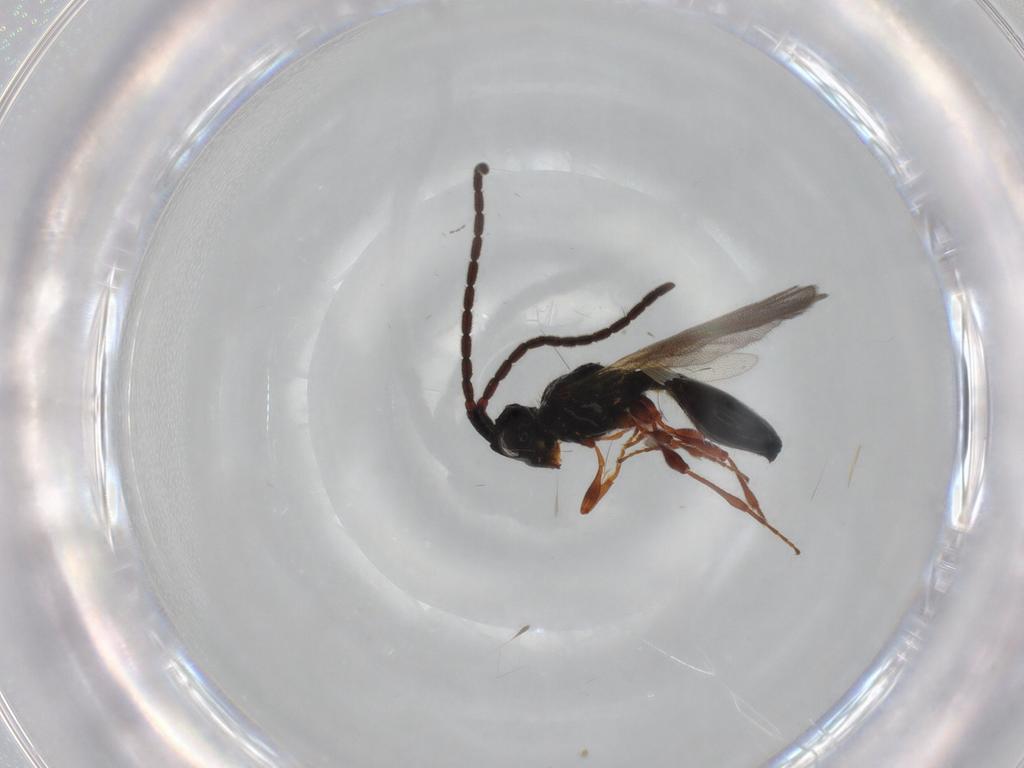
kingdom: Animalia
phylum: Arthropoda
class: Insecta
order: Hymenoptera
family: Diapriidae
